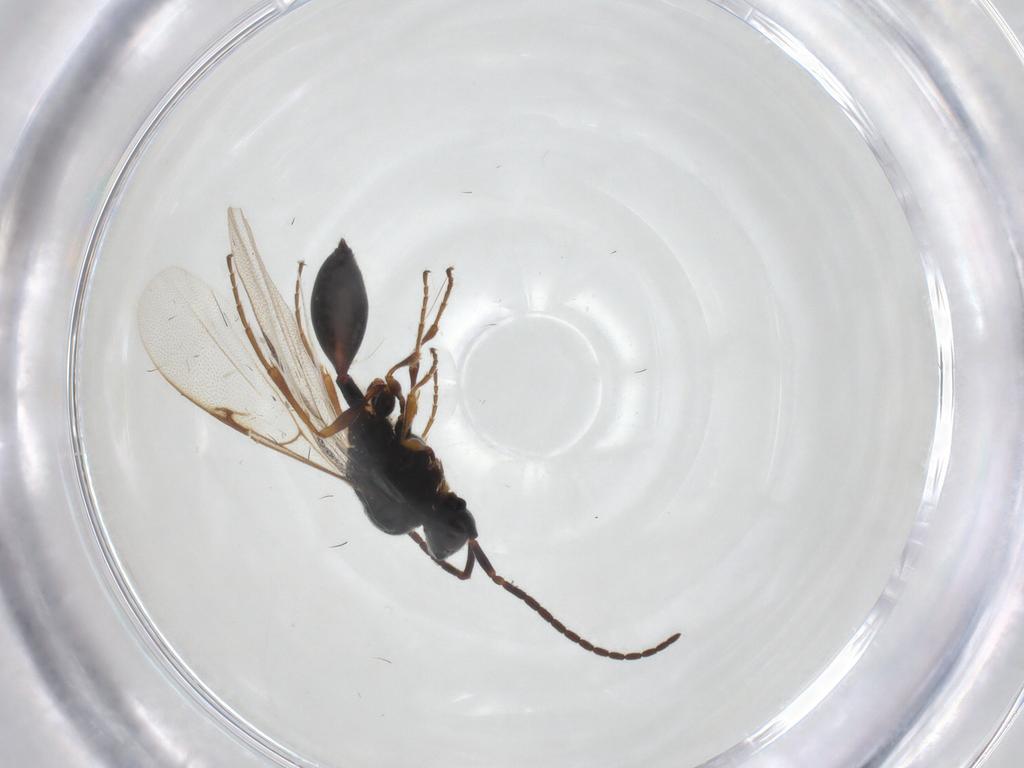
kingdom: Animalia
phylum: Arthropoda
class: Insecta
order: Hymenoptera
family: Diapriidae
